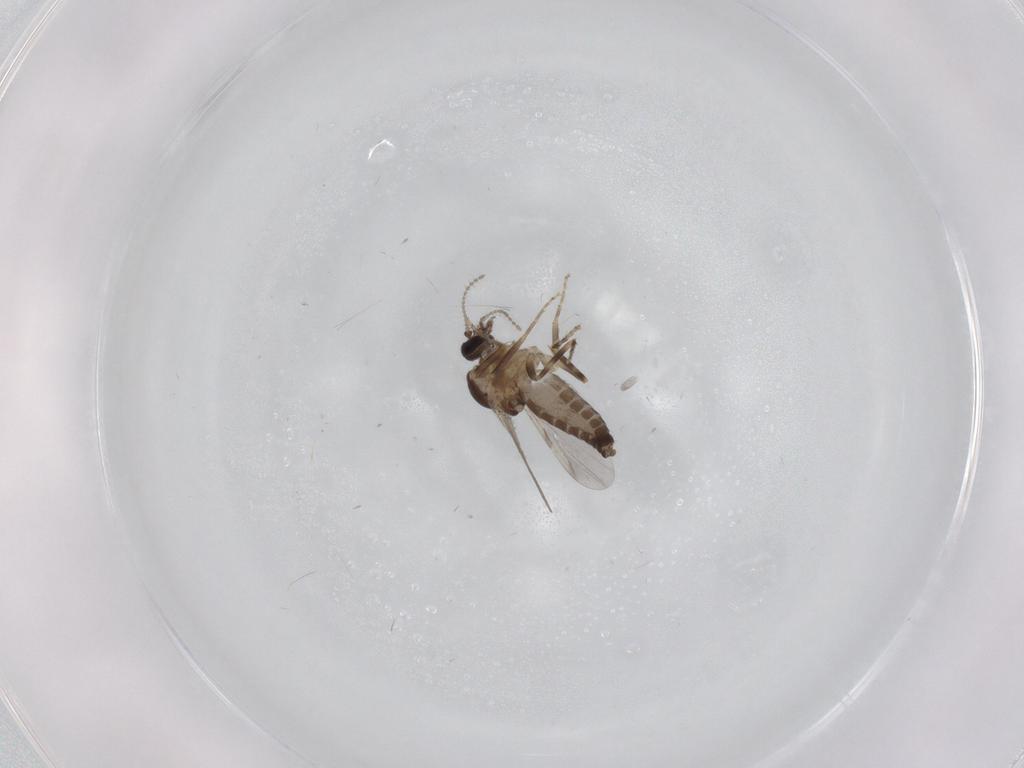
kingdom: Animalia
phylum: Arthropoda
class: Insecta
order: Diptera
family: Ceratopogonidae
